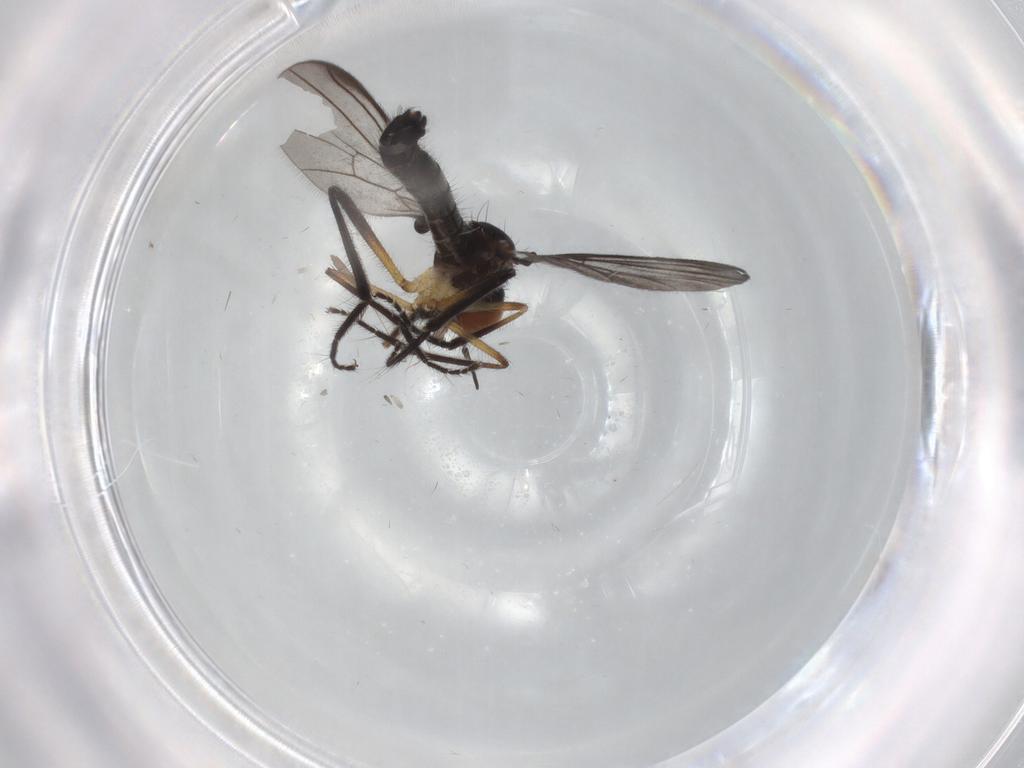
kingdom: Animalia
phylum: Arthropoda
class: Insecta
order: Diptera
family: Empididae
